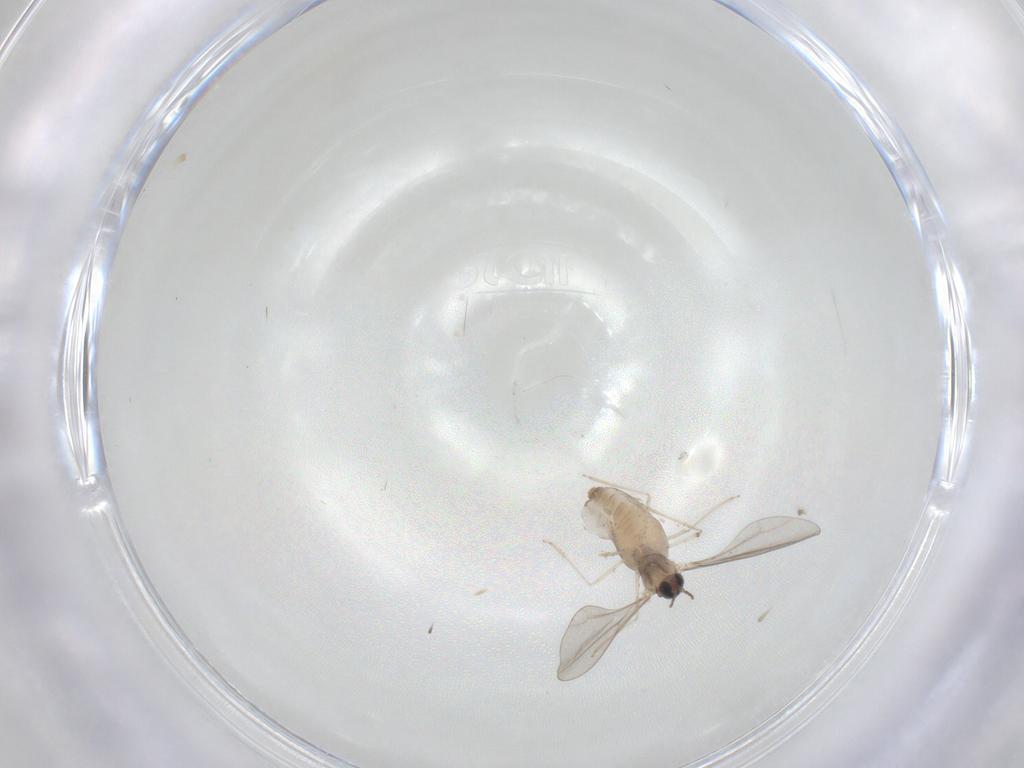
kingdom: Animalia
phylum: Arthropoda
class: Insecta
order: Diptera
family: Cecidomyiidae
